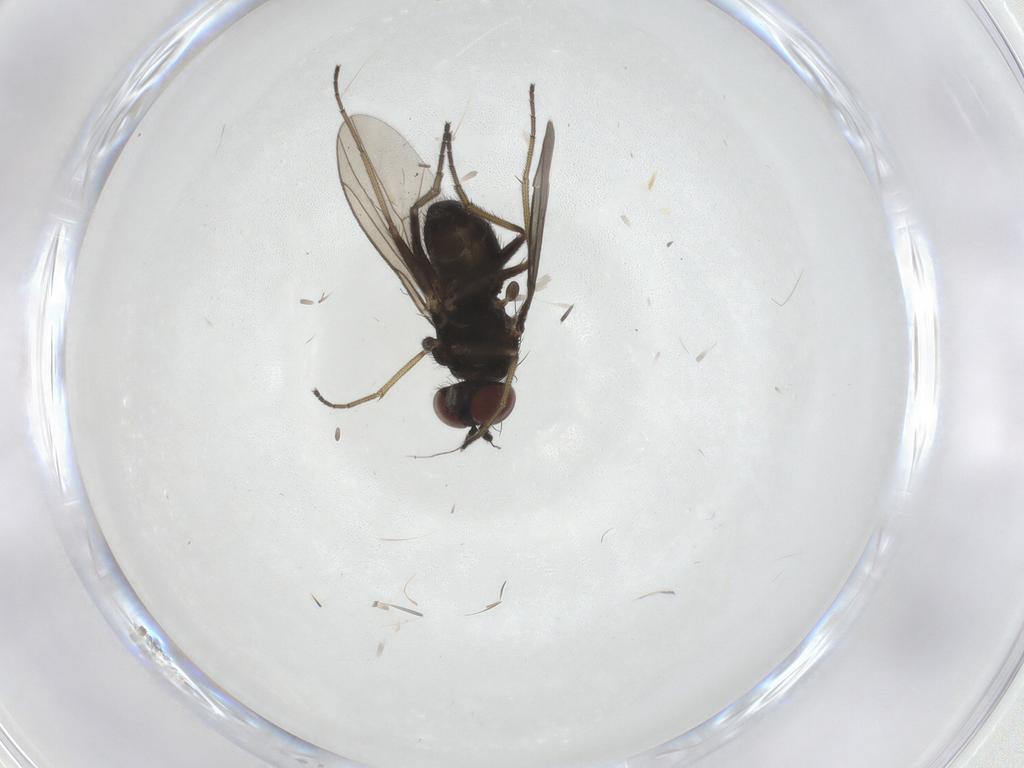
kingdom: Animalia
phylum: Arthropoda
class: Insecta
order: Diptera
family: Dolichopodidae
